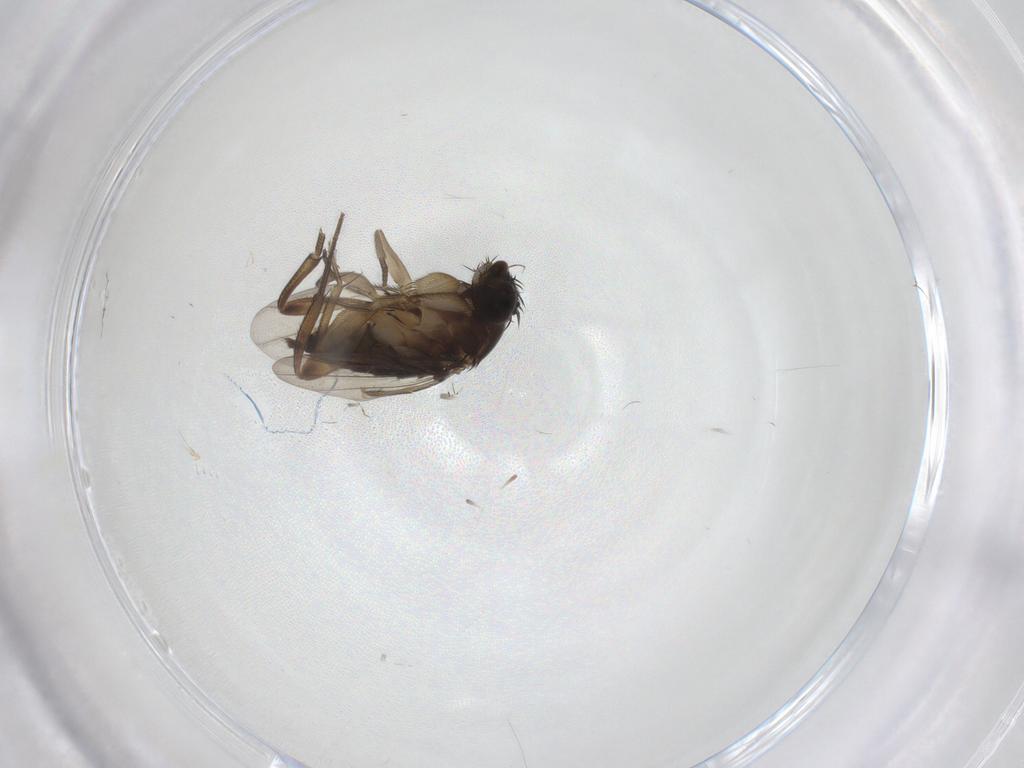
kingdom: Animalia
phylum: Arthropoda
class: Insecta
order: Diptera
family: Phoridae
